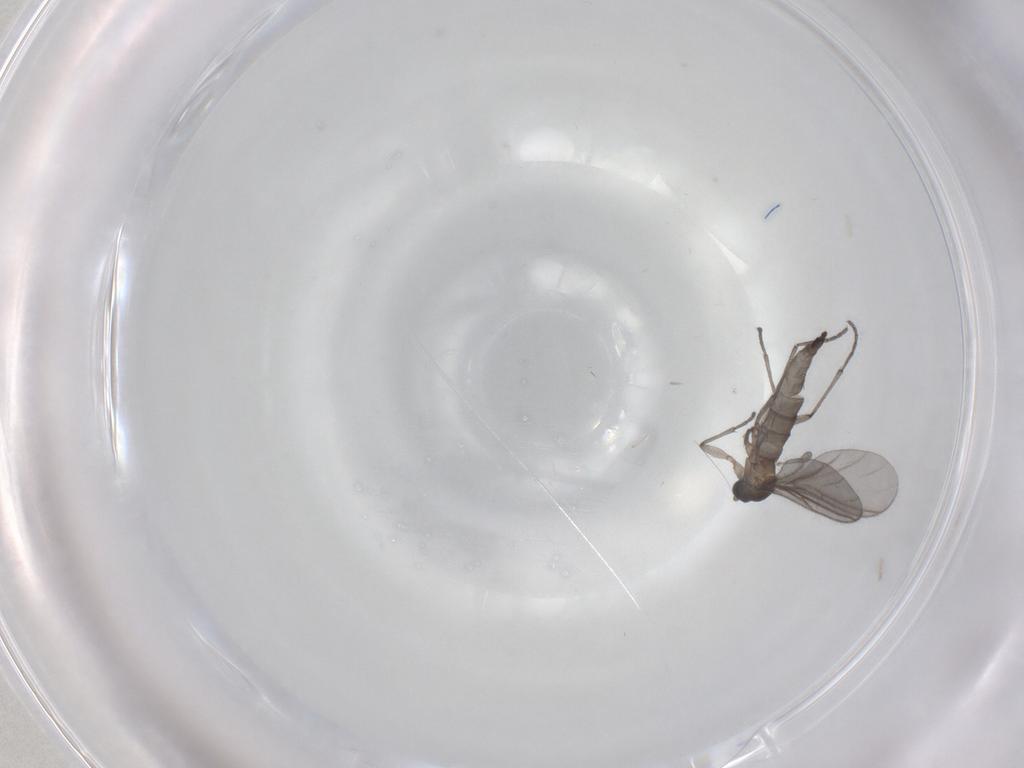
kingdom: Animalia
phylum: Arthropoda
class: Insecta
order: Diptera
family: Sciaridae
